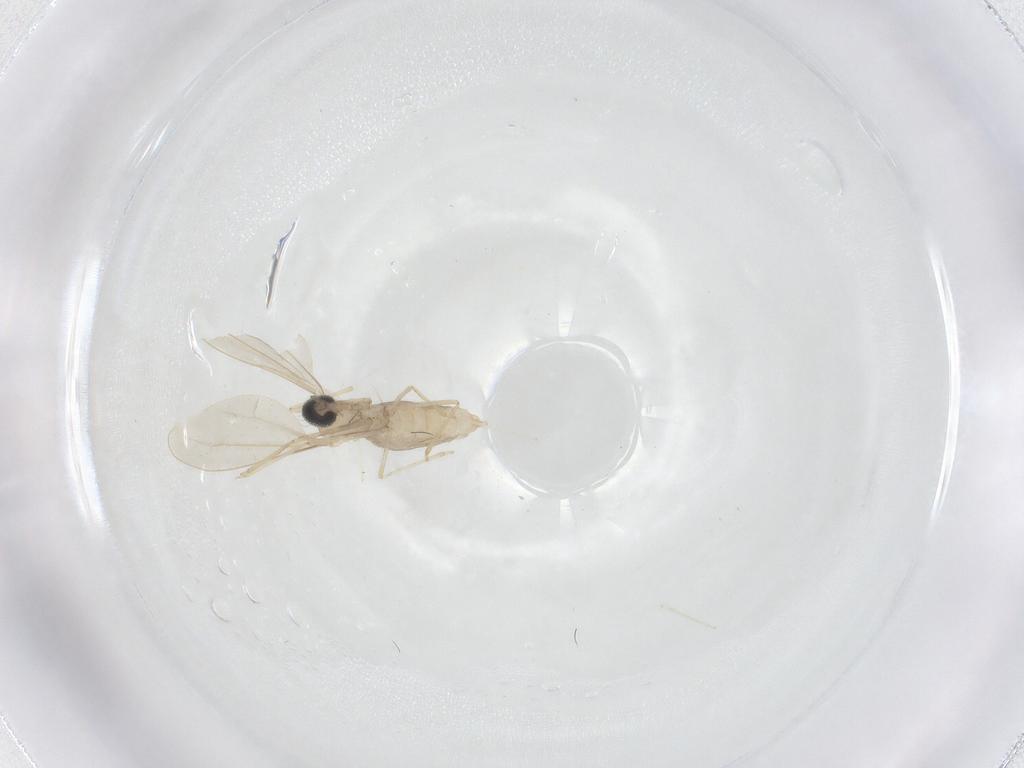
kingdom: Animalia
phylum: Arthropoda
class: Insecta
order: Diptera
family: Cecidomyiidae
